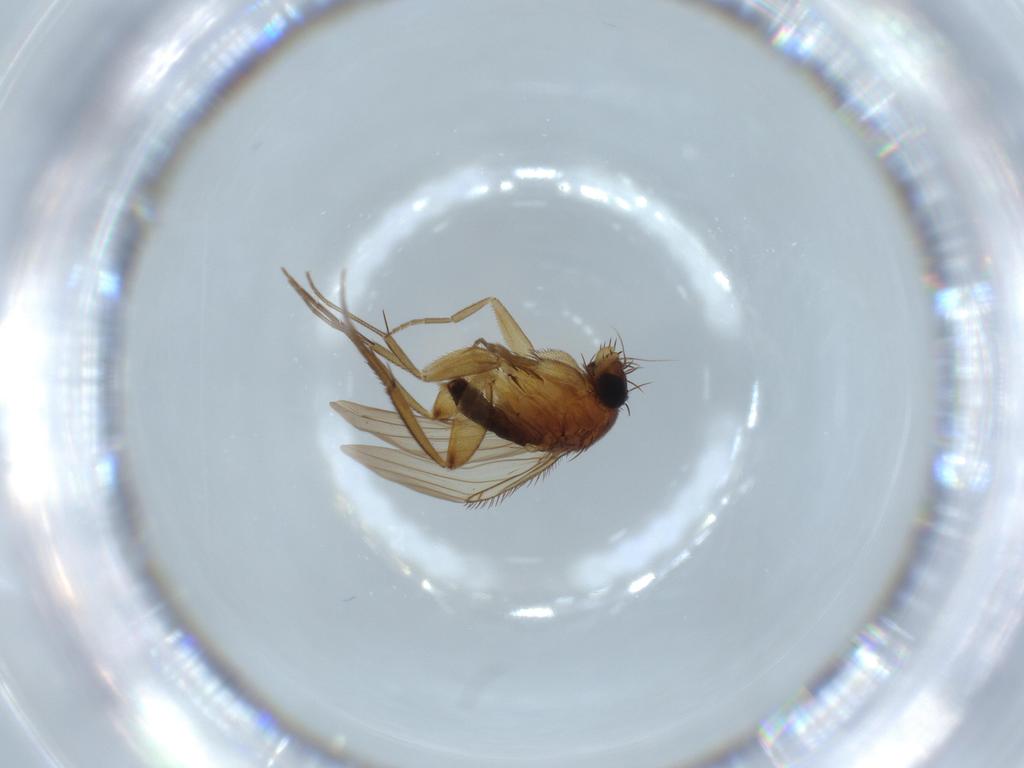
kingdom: Animalia
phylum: Arthropoda
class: Insecta
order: Diptera
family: Phoridae
